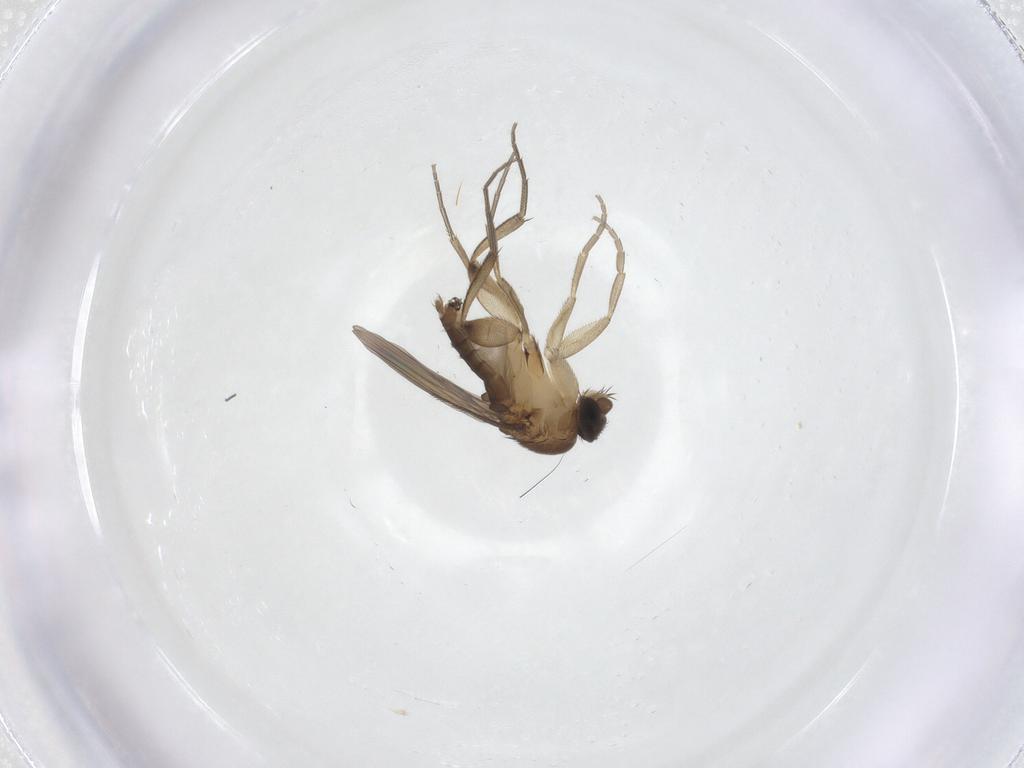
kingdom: Animalia
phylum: Arthropoda
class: Insecta
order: Diptera
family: Phoridae
